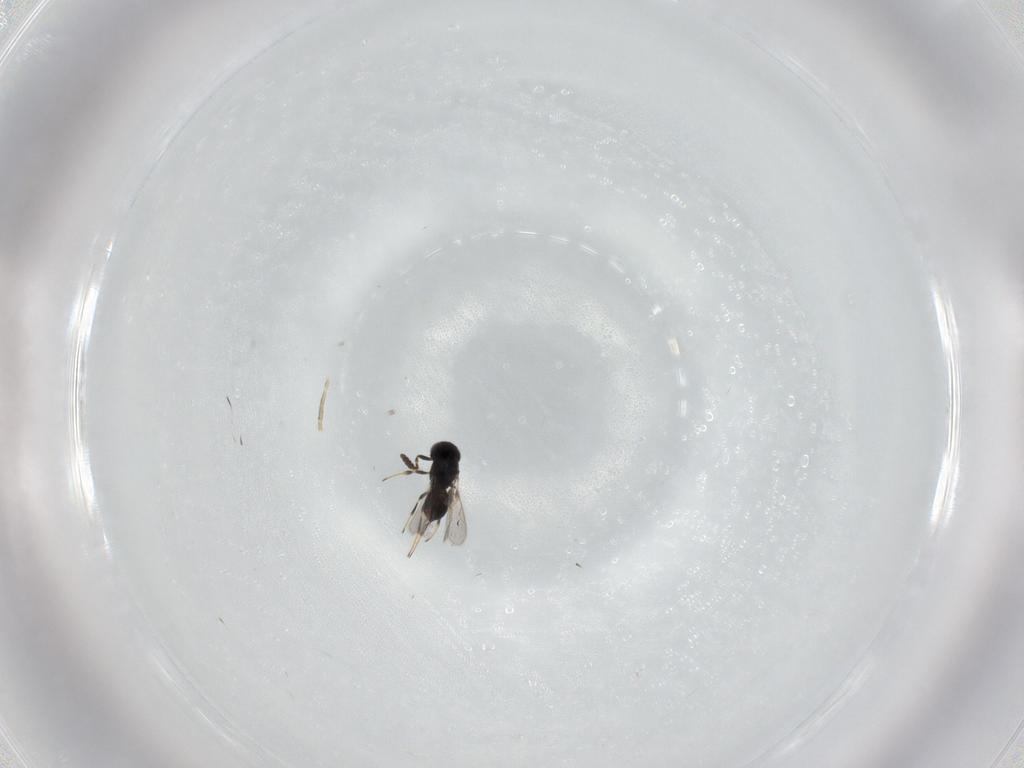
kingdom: Animalia
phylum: Arthropoda
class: Insecta
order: Hymenoptera
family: Scelionidae
